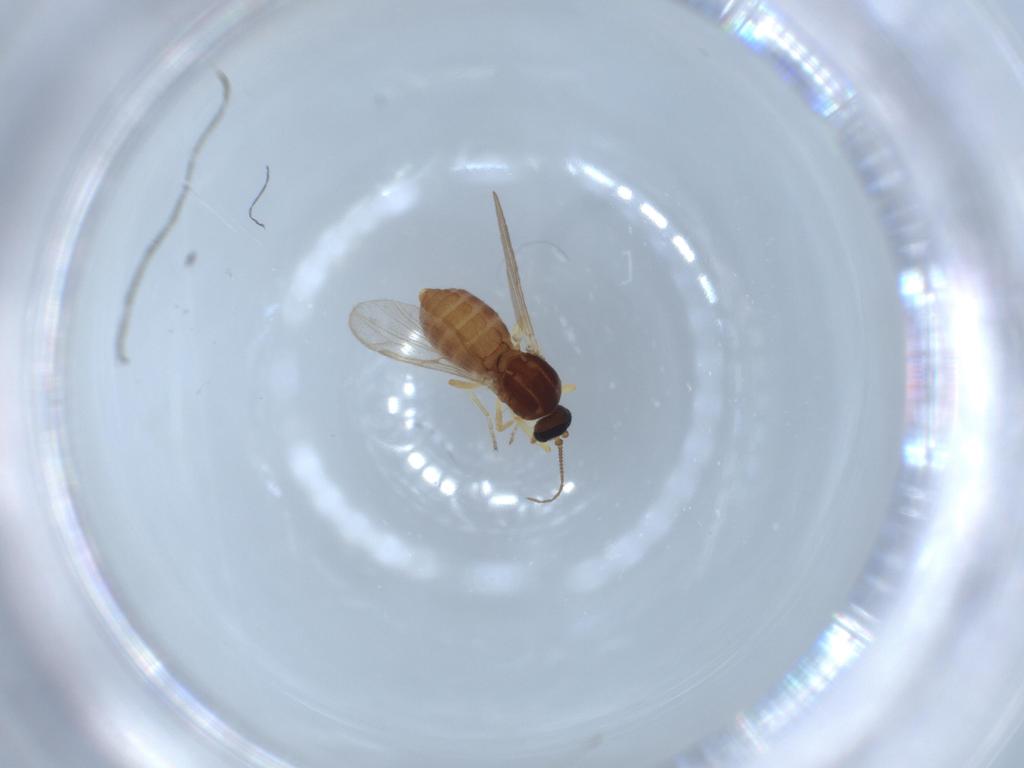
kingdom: Animalia
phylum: Arthropoda
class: Insecta
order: Diptera
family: Ceratopogonidae
